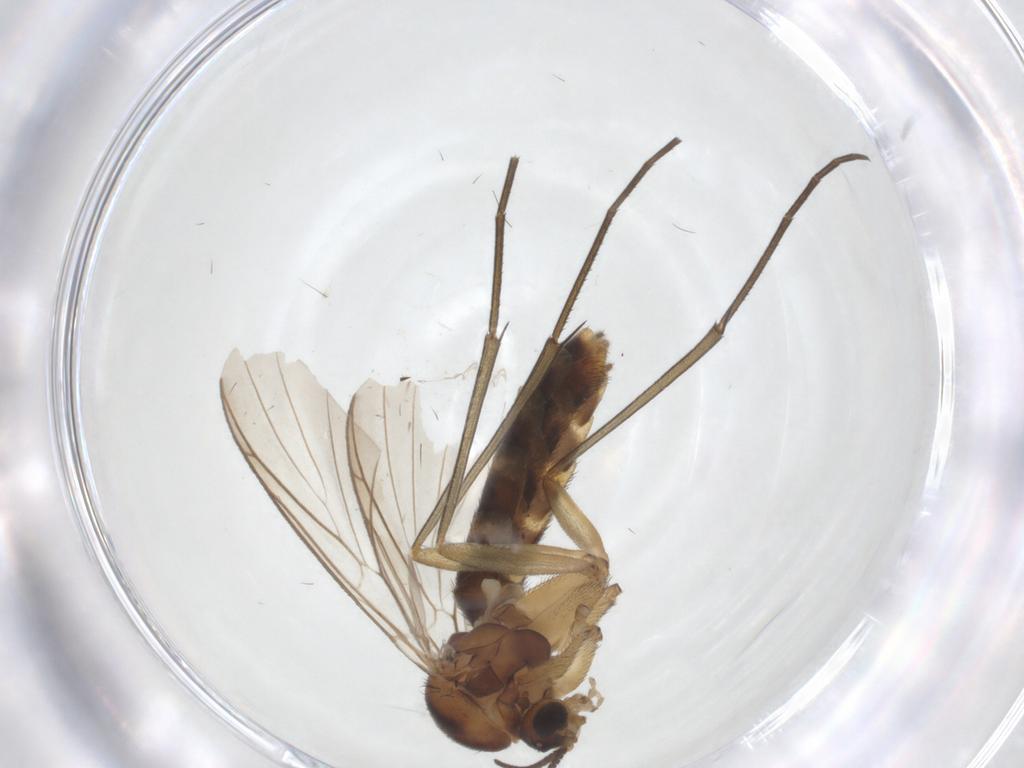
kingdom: Animalia
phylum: Arthropoda
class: Insecta
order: Diptera
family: Keroplatidae
